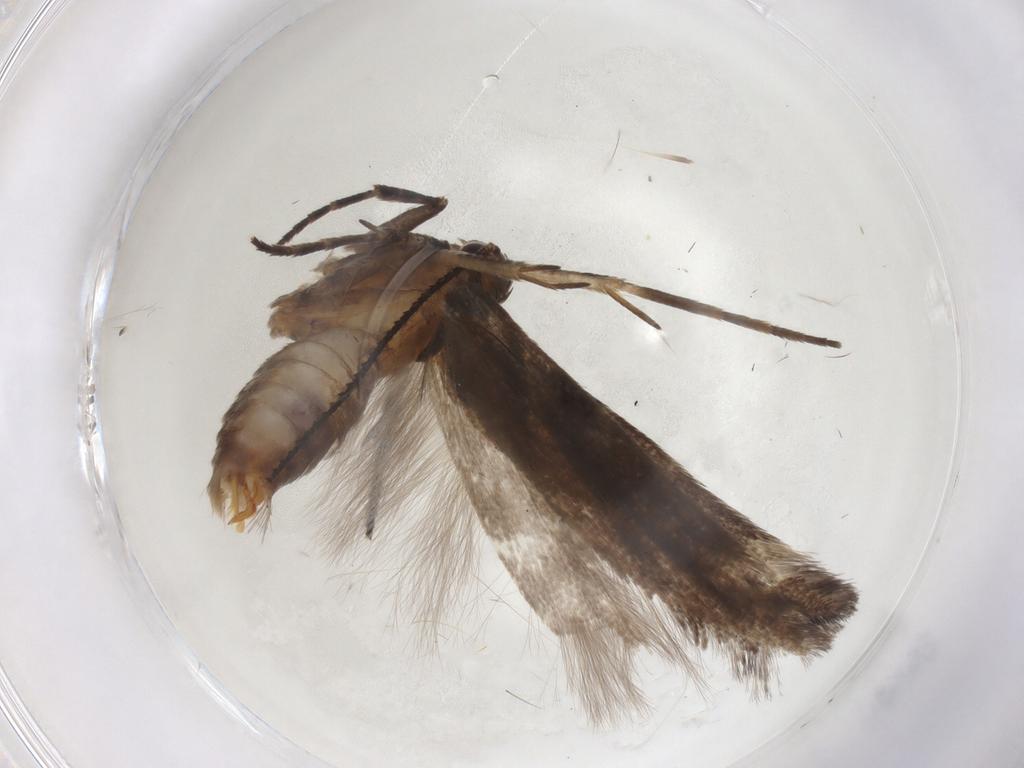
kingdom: Animalia
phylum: Arthropoda
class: Insecta
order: Lepidoptera
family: Gelechiidae
